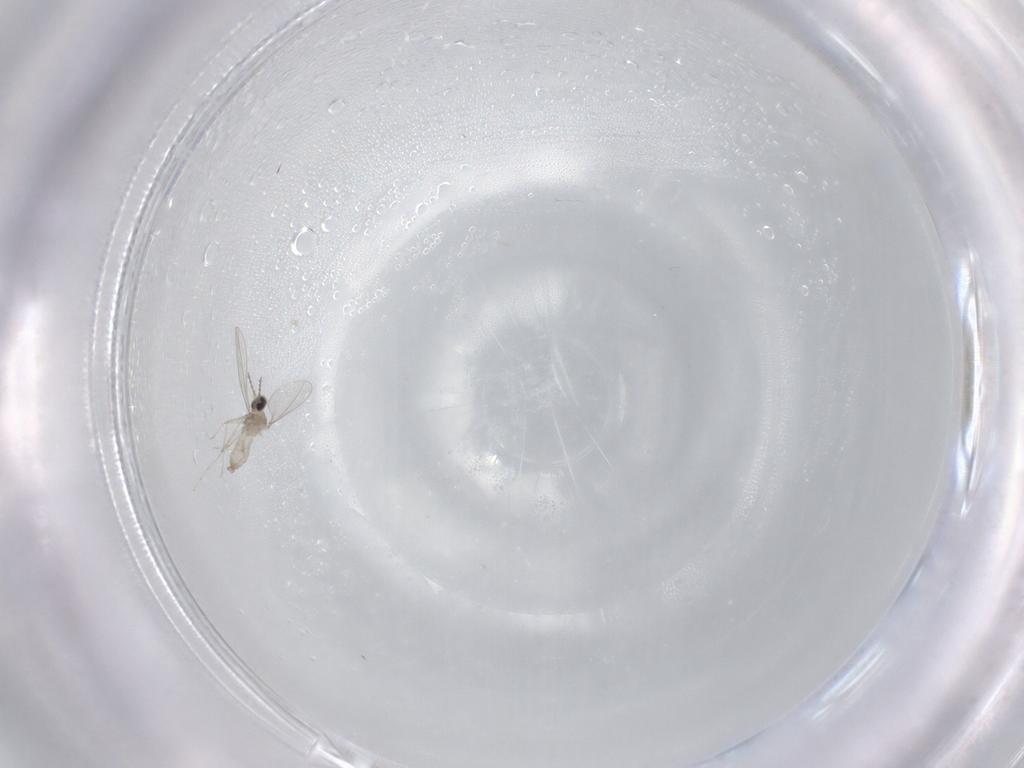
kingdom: Animalia
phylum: Arthropoda
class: Insecta
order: Diptera
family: Cecidomyiidae
